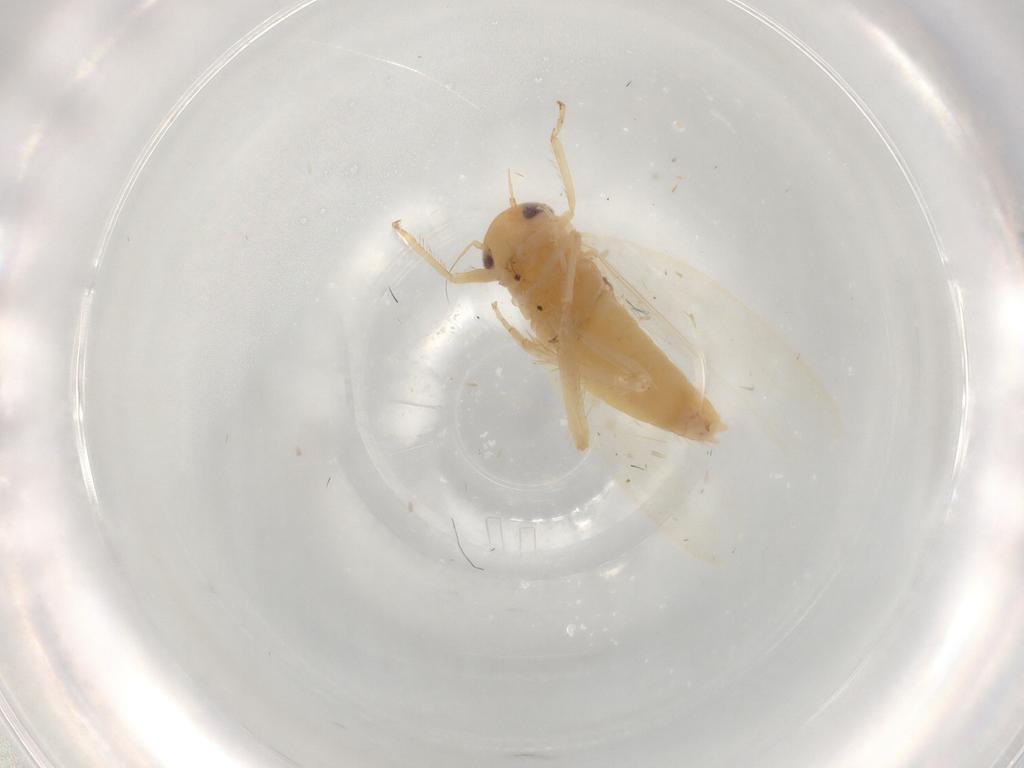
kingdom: Animalia
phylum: Arthropoda
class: Insecta
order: Hemiptera
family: Cicadellidae
